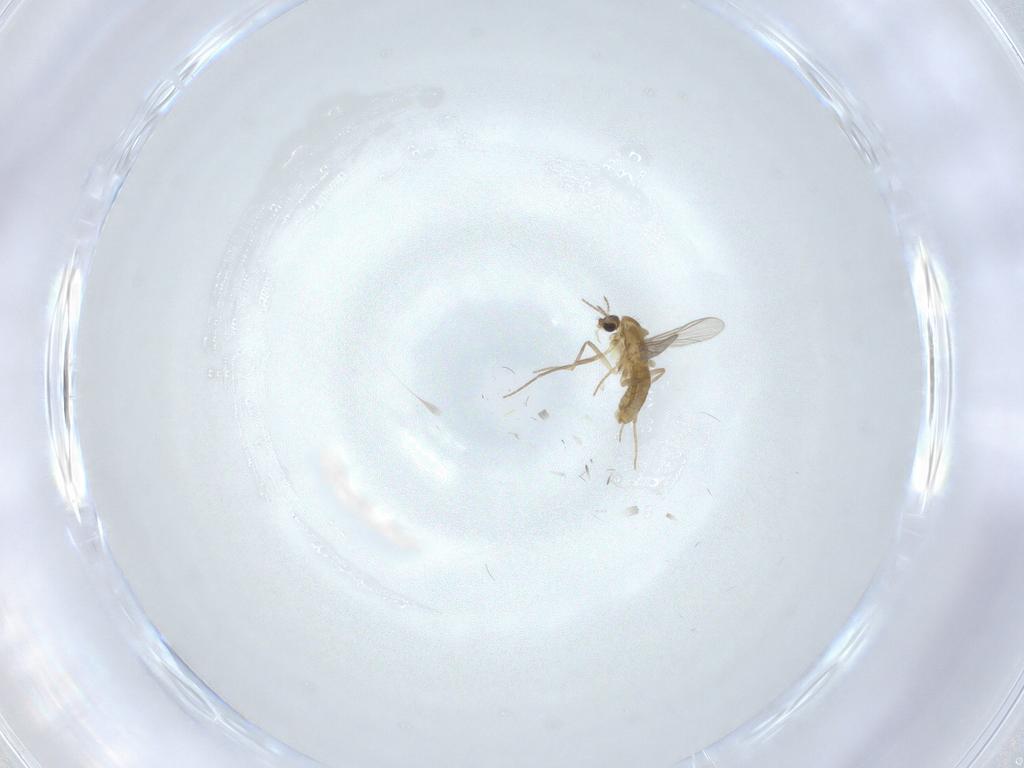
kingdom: Animalia
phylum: Arthropoda
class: Insecta
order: Diptera
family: Chironomidae
